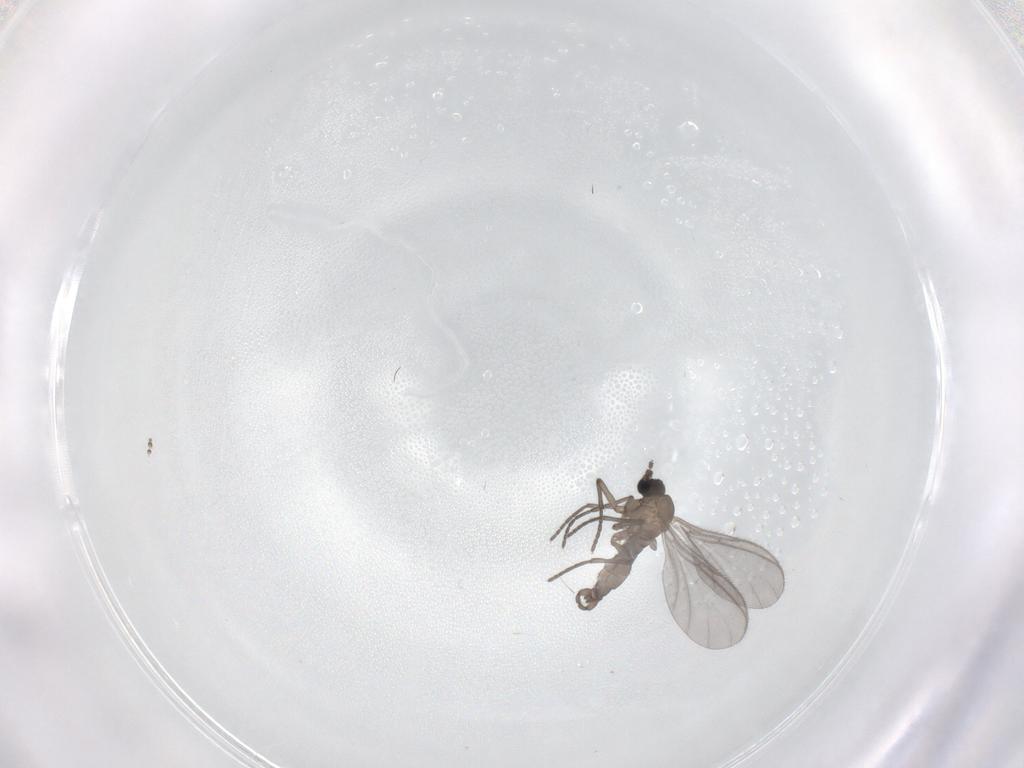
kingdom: Animalia
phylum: Arthropoda
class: Insecta
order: Diptera
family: Sciaridae
